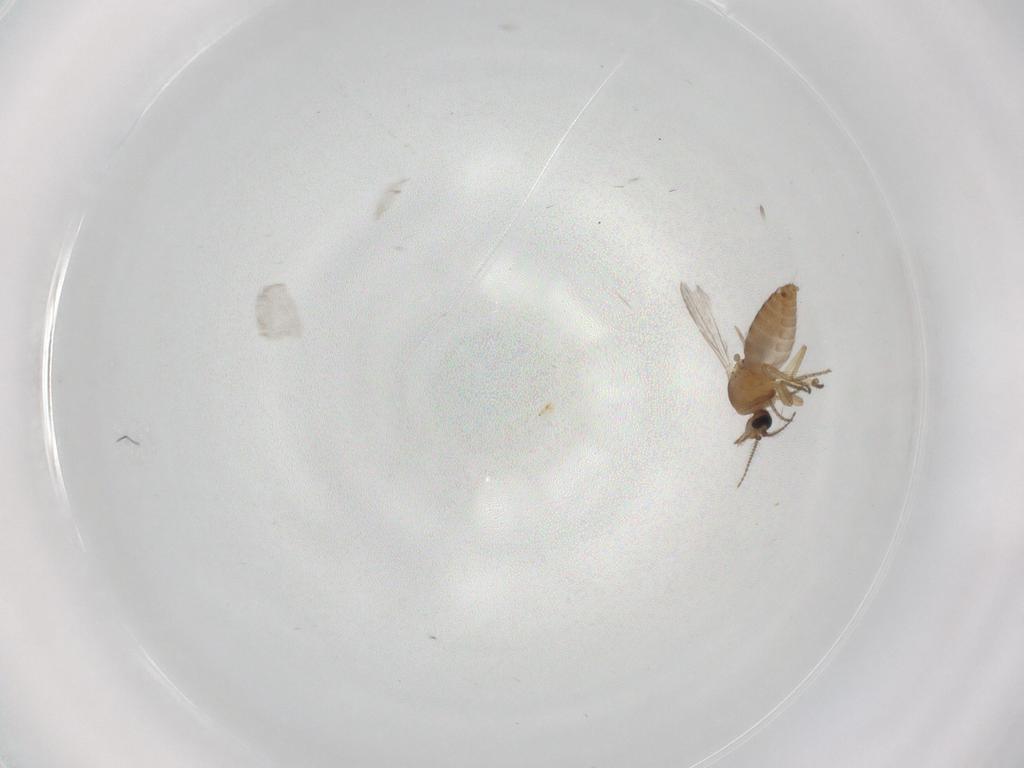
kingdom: Animalia
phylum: Arthropoda
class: Insecta
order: Diptera
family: Ceratopogonidae
